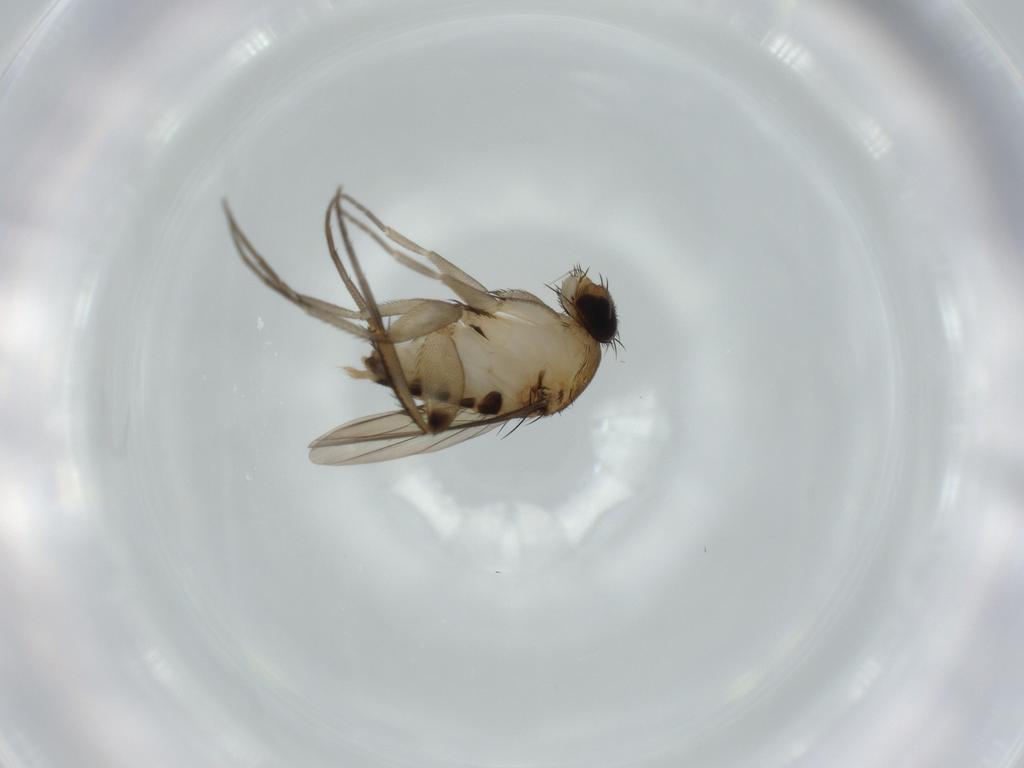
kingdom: Animalia
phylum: Arthropoda
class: Insecta
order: Diptera
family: Phoridae
